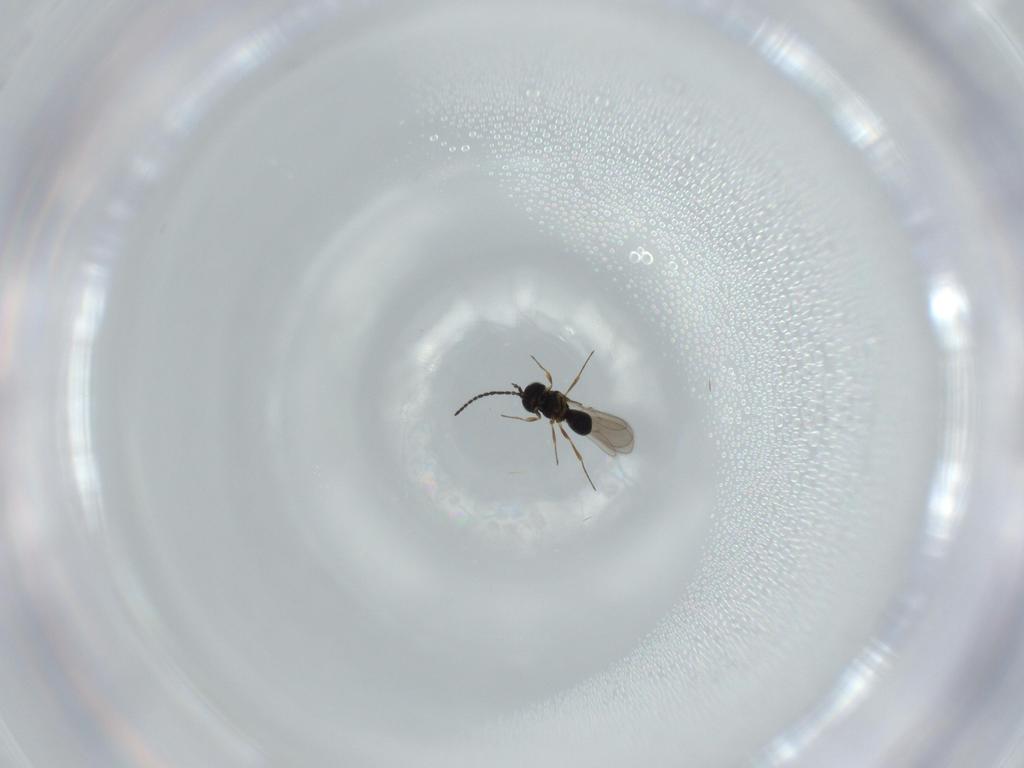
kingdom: Animalia
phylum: Arthropoda
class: Insecta
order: Hymenoptera
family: Scelionidae
